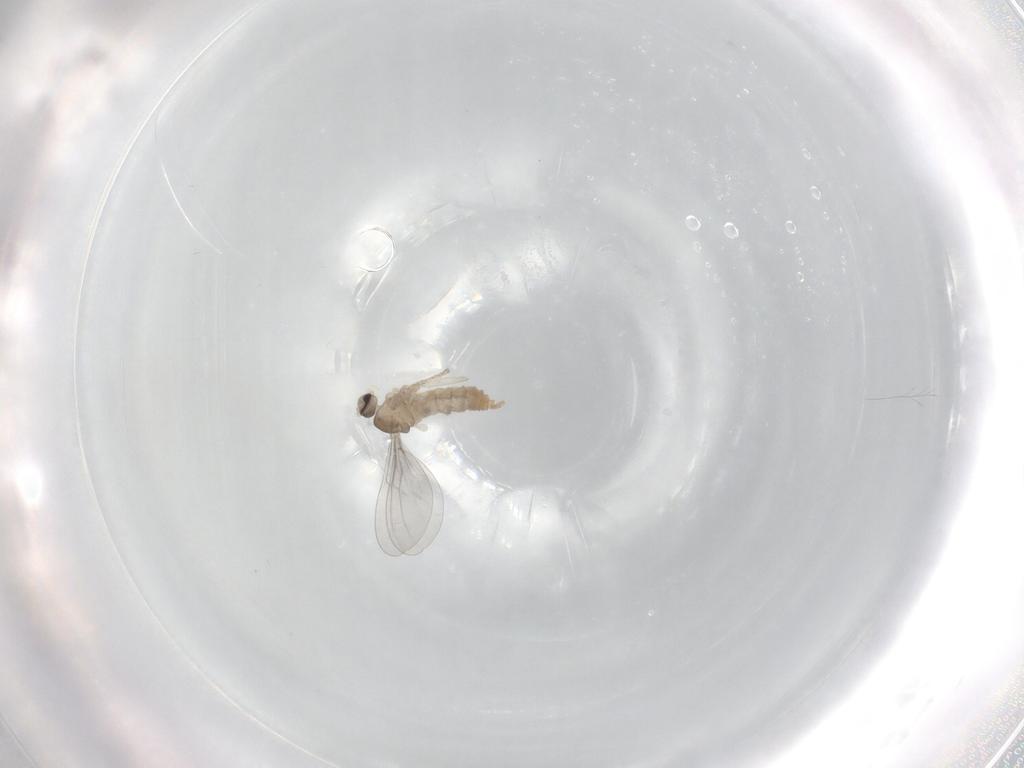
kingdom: Animalia
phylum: Arthropoda
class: Insecta
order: Diptera
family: Cecidomyiidae
